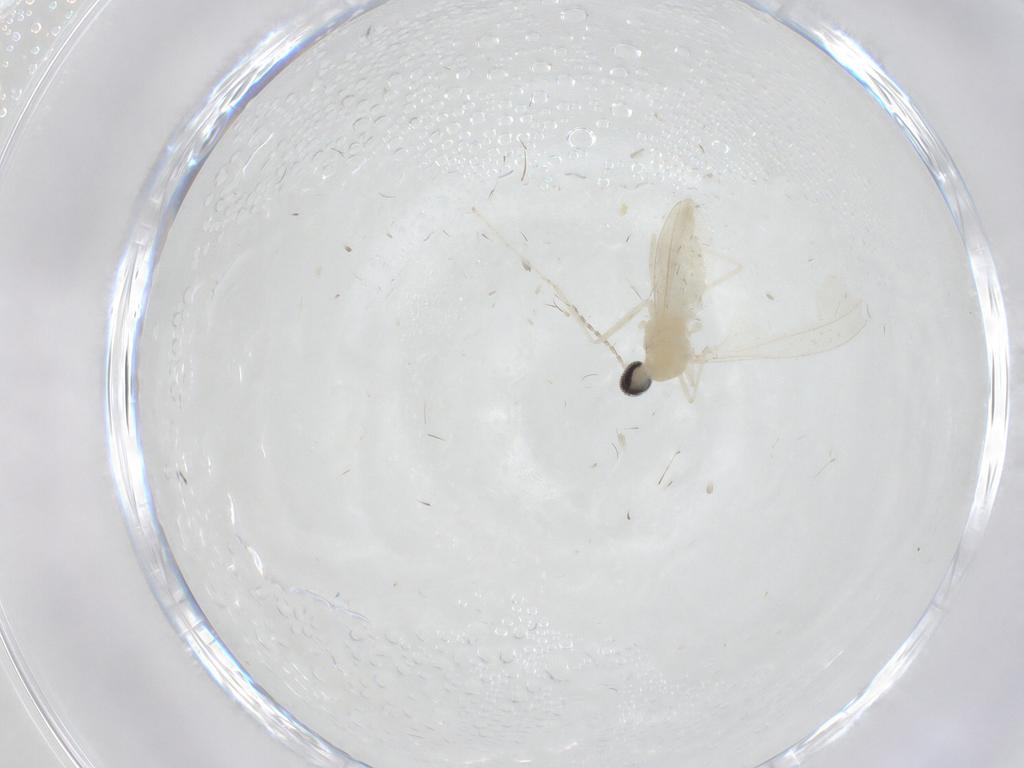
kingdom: Animalia
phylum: Arthropoda
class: Insecta
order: Diptera
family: Cecidomyiidae
